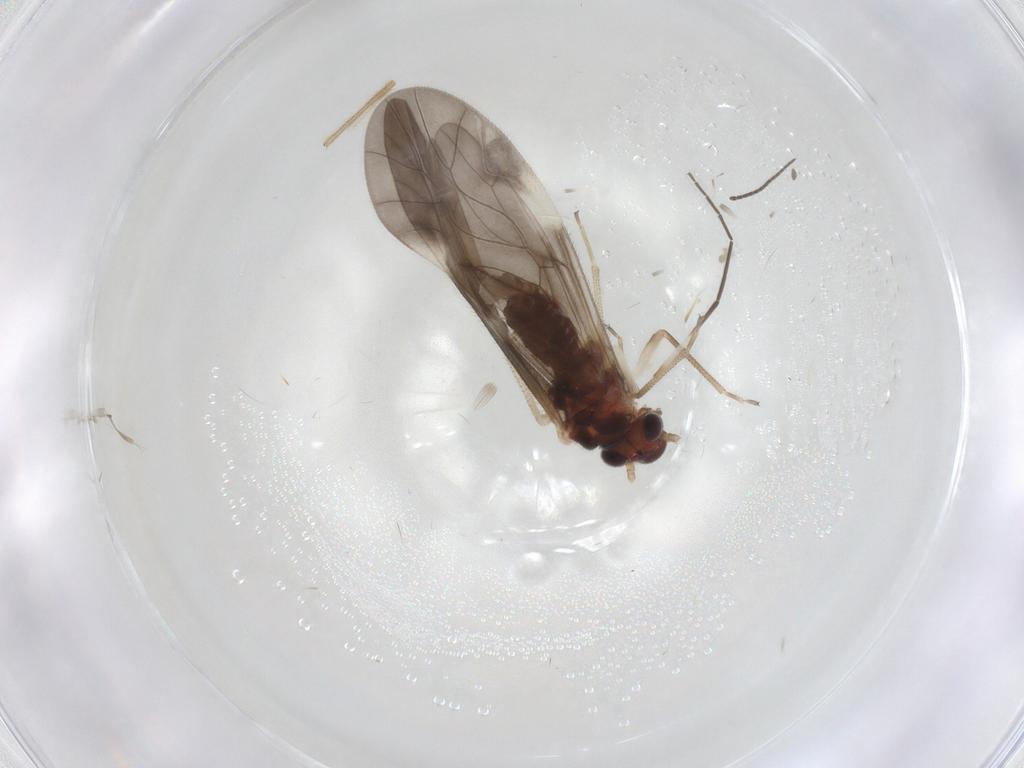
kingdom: Animalia
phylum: Arthropoda
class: Insecta
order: Psocodea
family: Caeciliusidae
